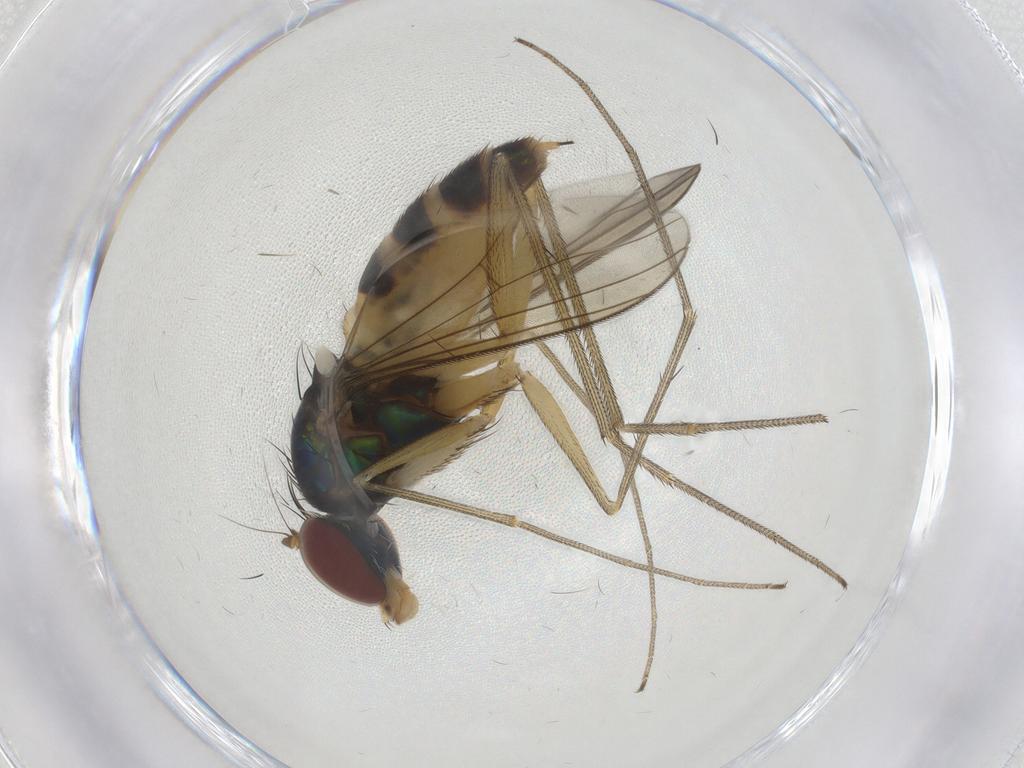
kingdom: Animalia
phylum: Arthropoda
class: Insecta
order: Diptera
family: Dolichopodidae
